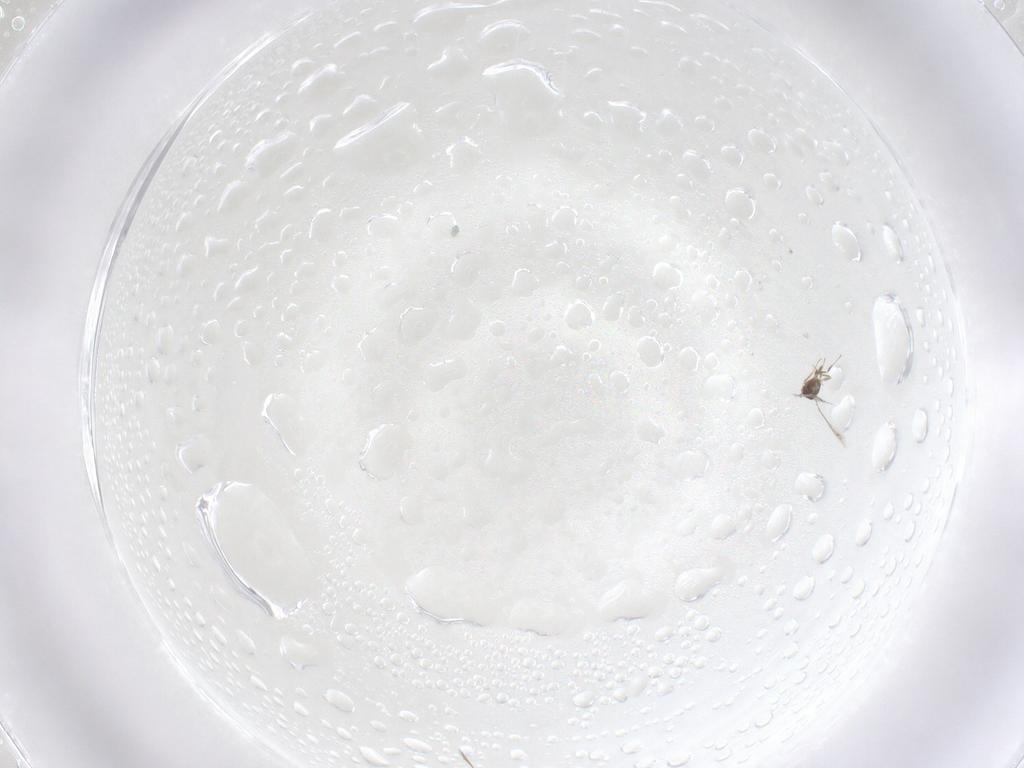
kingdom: Animalia
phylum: Arthropoda
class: Insecta
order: Hymenoptera
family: Mymaridae
